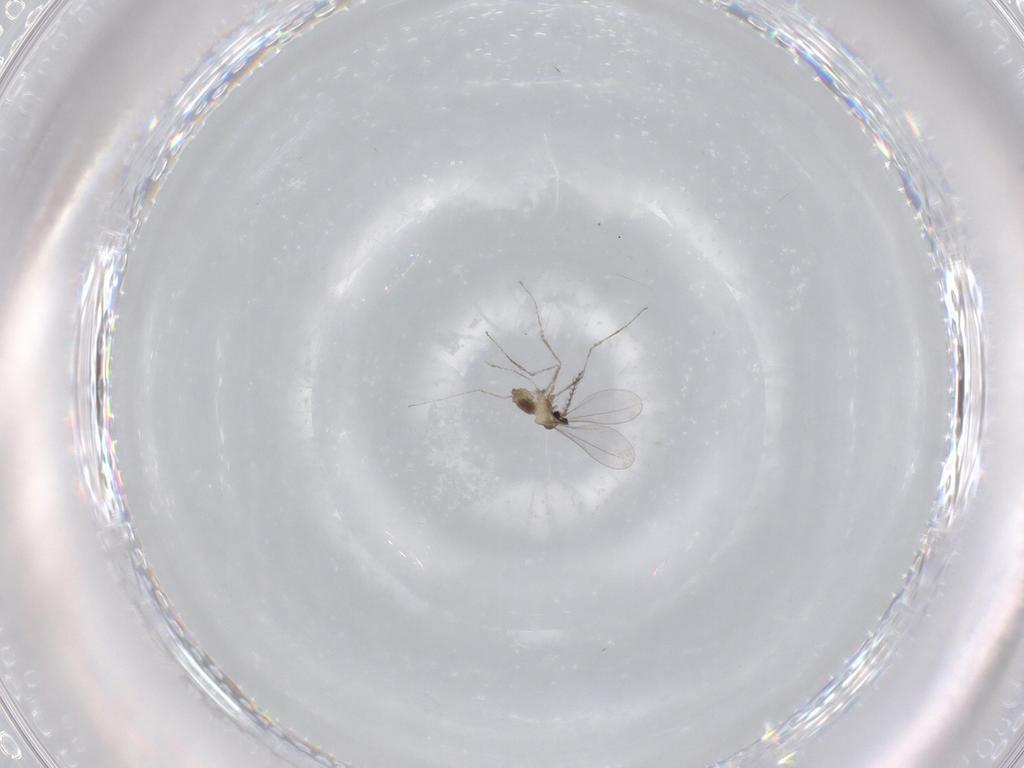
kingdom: Animalia
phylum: Arthropoda
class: Insecta
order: Diptera
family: Cecidomyiidae
